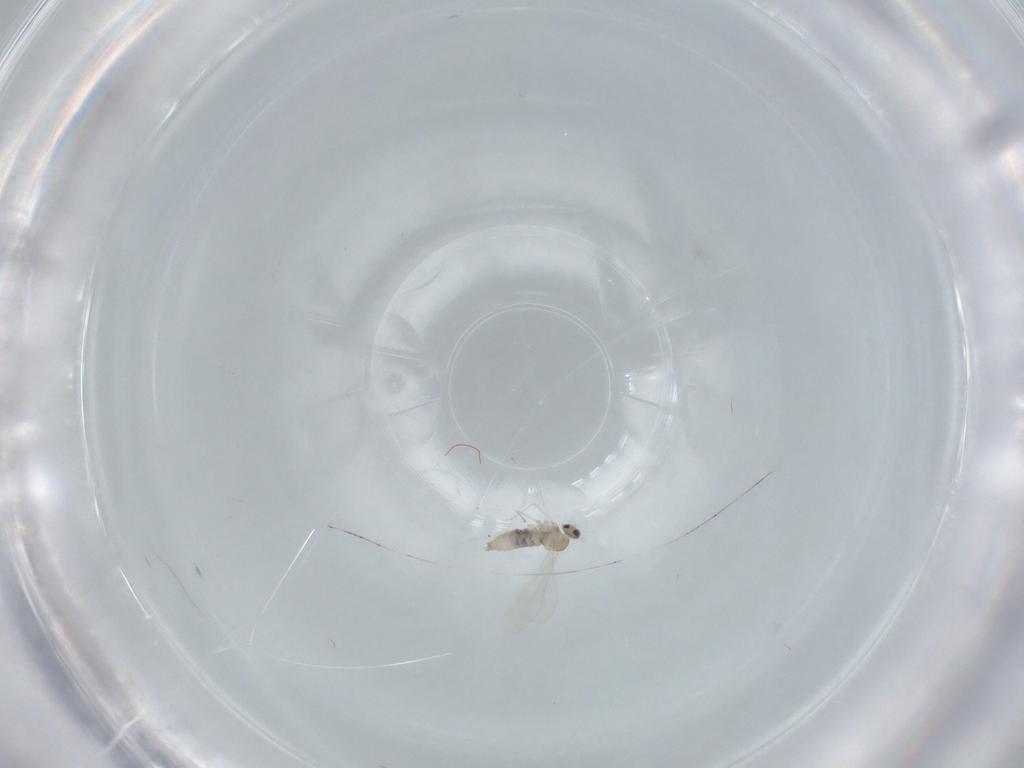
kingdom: Animalia
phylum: Arthropoda
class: Insecta
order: Diptera
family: Cecidomyiidae
